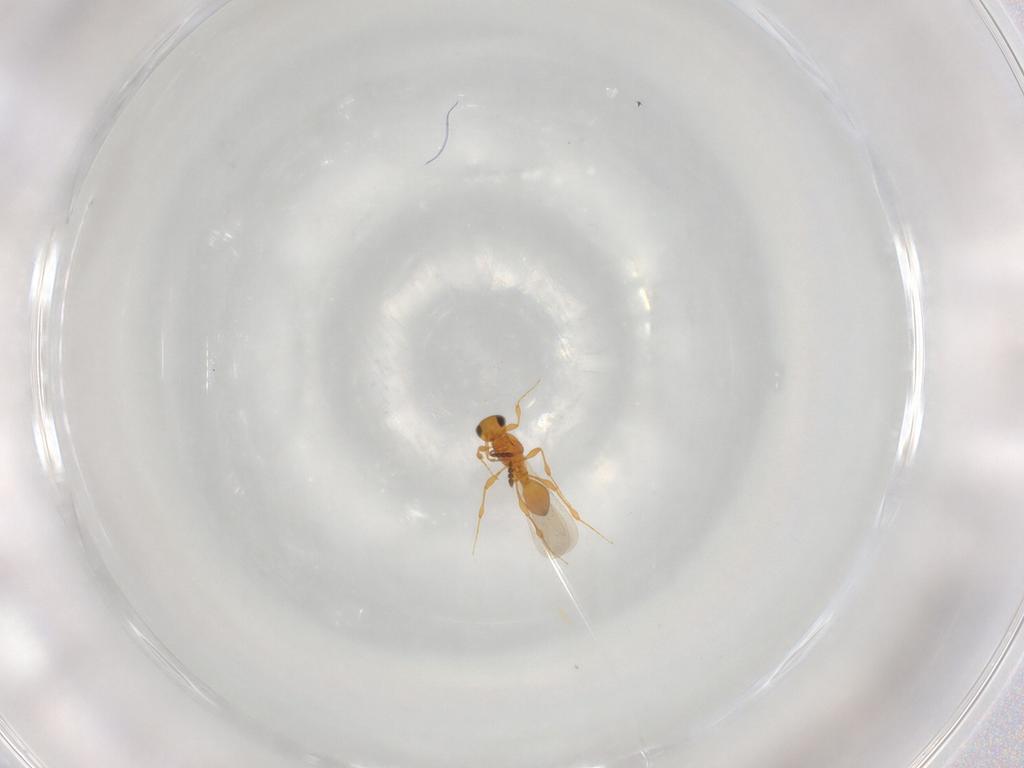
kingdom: Animalia
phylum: Arthropoda
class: Insecta
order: Hymenoptera
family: Platygastridae
